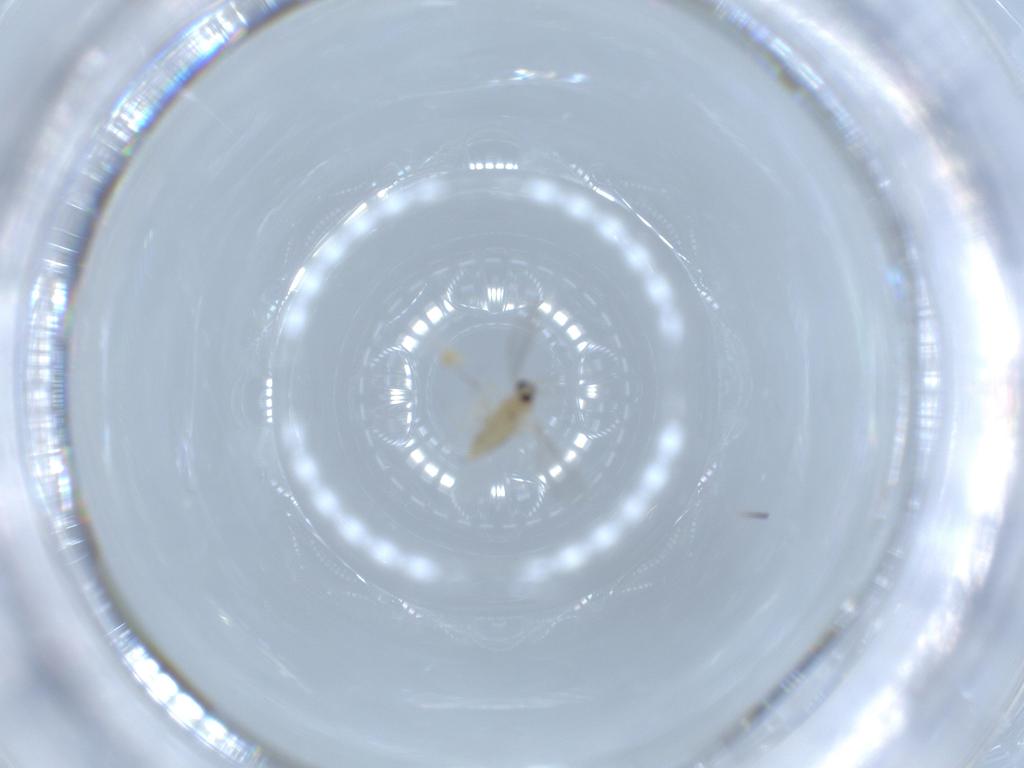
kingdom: Animalia
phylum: Arthropoda
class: Insecta
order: Diptera
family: Cecidomyiidae
